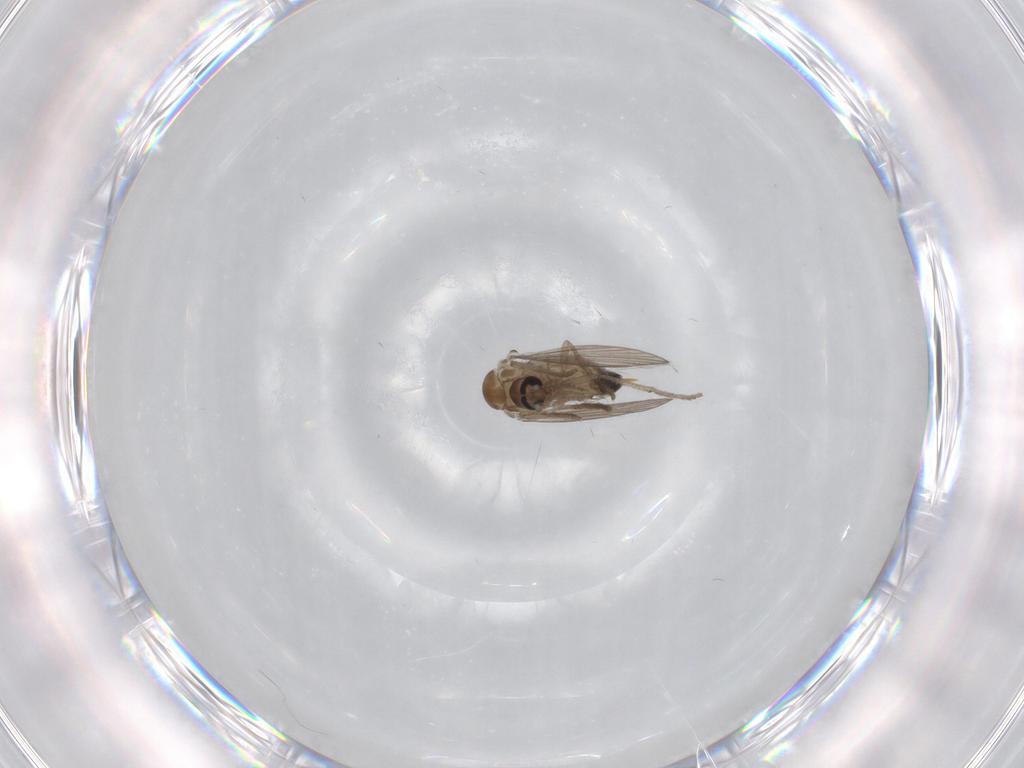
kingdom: Animalia
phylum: Arthropoda
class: Insecta
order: Diptera
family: Psychodidae
